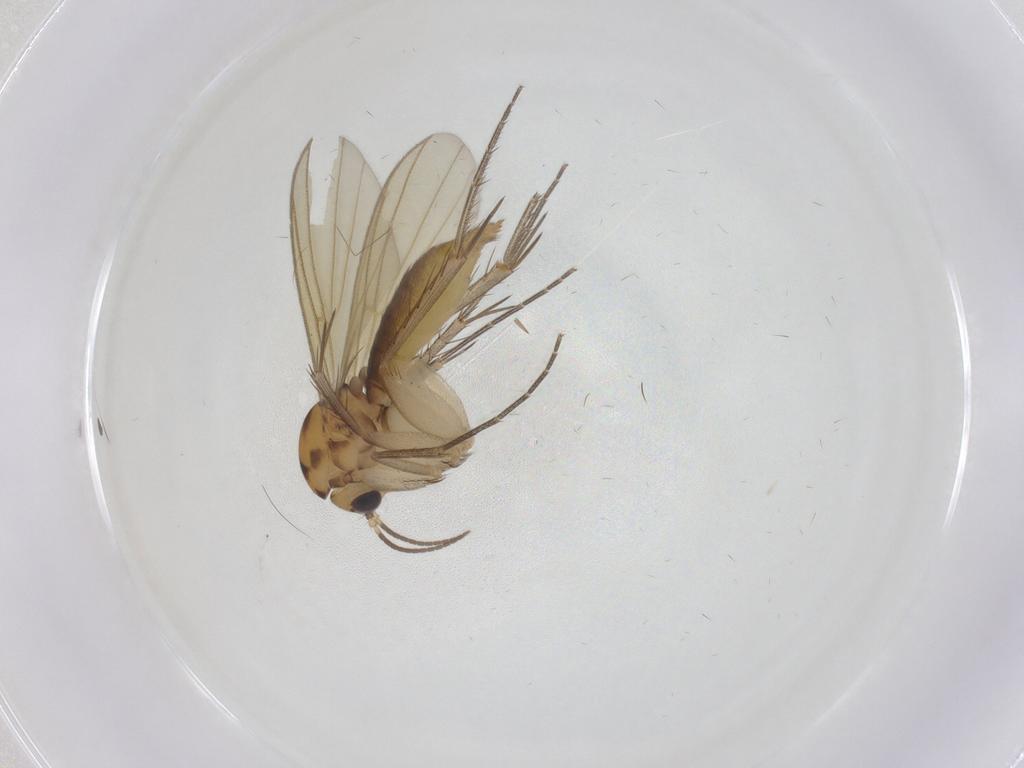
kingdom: Animalia
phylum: Arthropoda
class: Insecta
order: Diptera
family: Mycetophilidae
